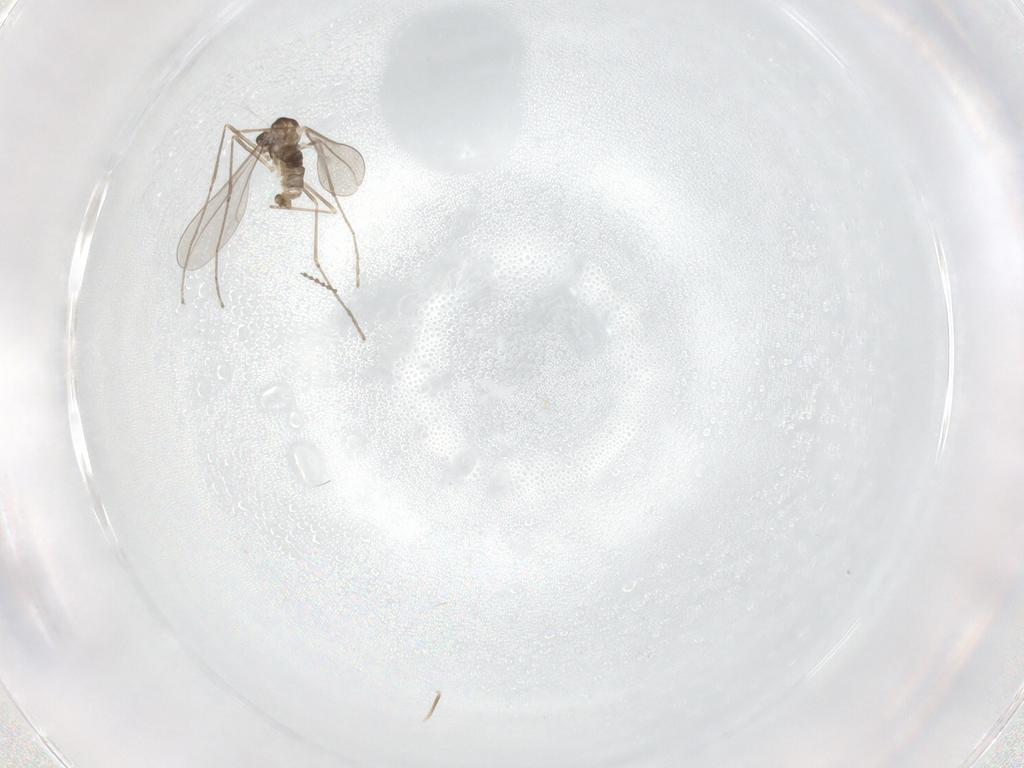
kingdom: Animalia
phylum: Arthropoda
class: Insecta
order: Diptera
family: Cecidomyiidae
